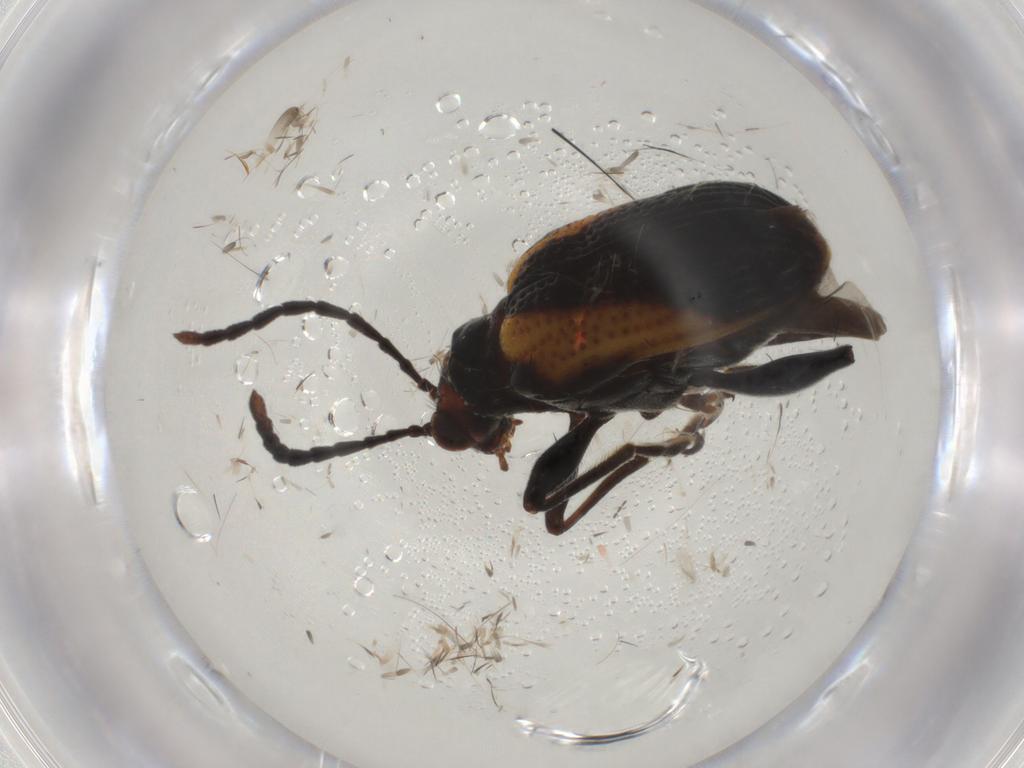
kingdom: Animalia
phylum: Arthropoda
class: Insecta
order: Coleoptera
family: Chrysomelidae
